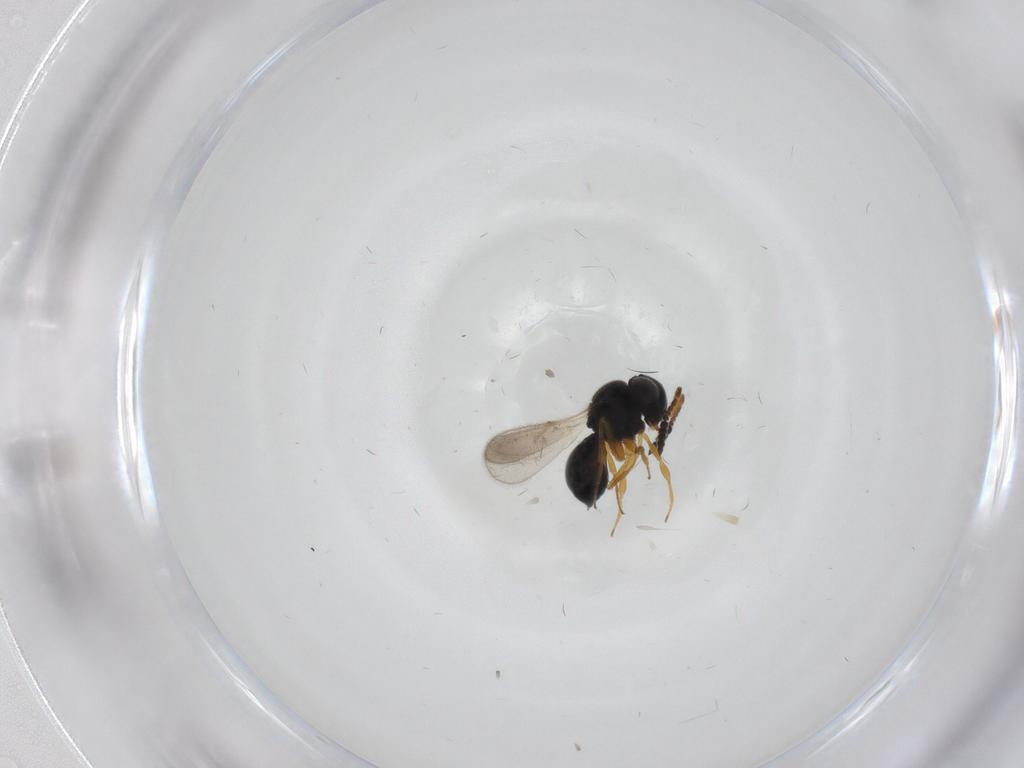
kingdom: Animalia
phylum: Arthropoda
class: Insecta
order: Hymenoptera
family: Scelionidae
